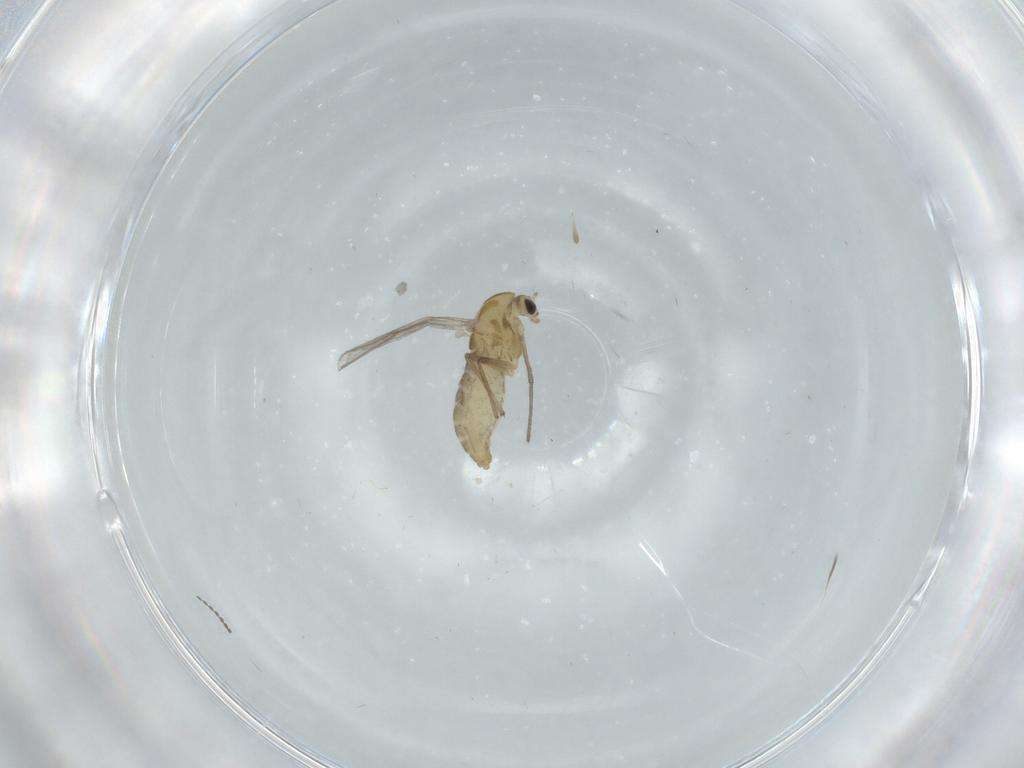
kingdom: Animalia
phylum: Arthropoda
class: Insecta
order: Diptera
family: Chironomidae
